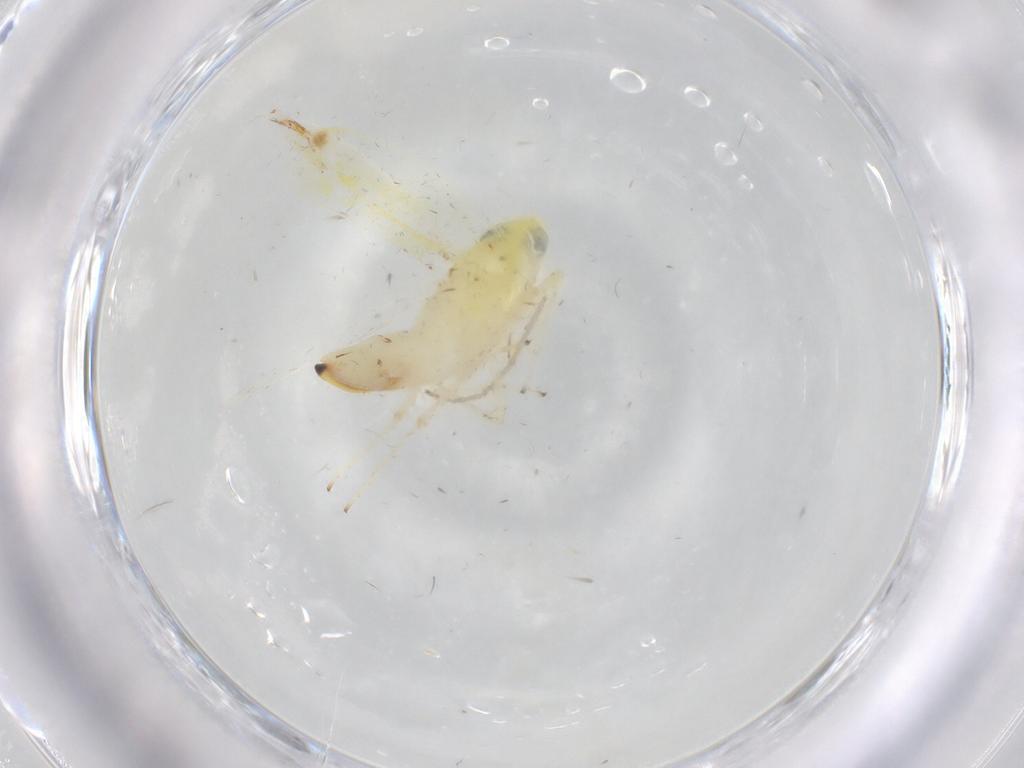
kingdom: Animalia
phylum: Arthropoda
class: Insecta
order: Hemiptera
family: Cicadellidae
